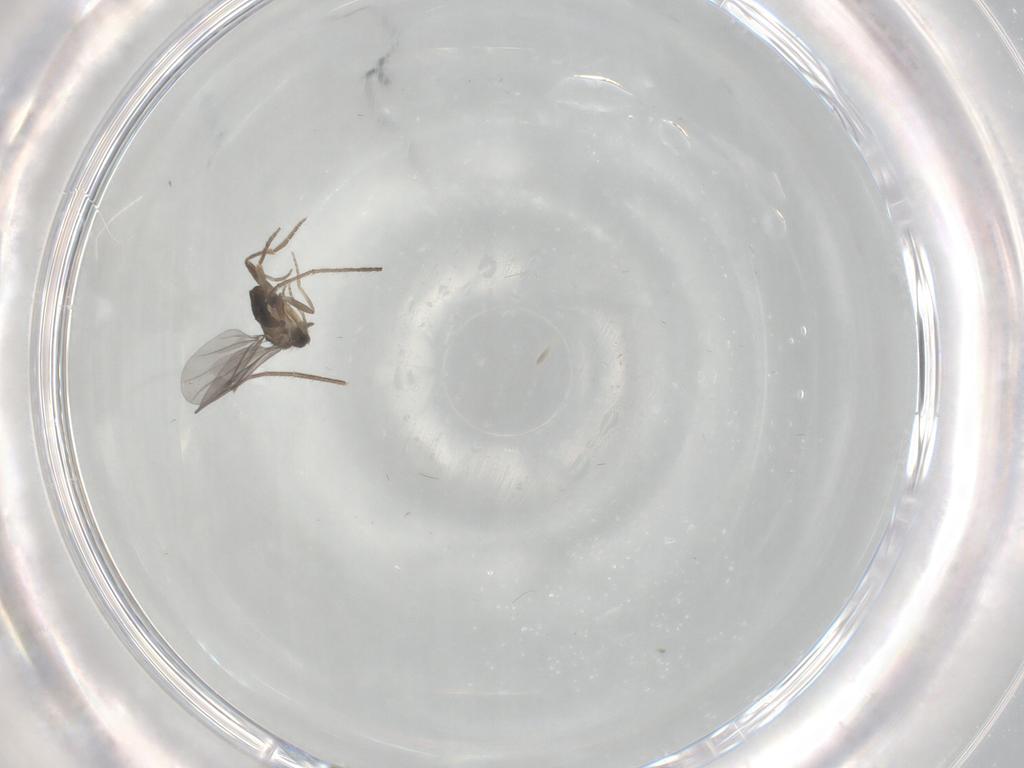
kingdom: Animalia
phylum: Arthropoda
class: Insecta
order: Diptera
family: Mycetophilidae
